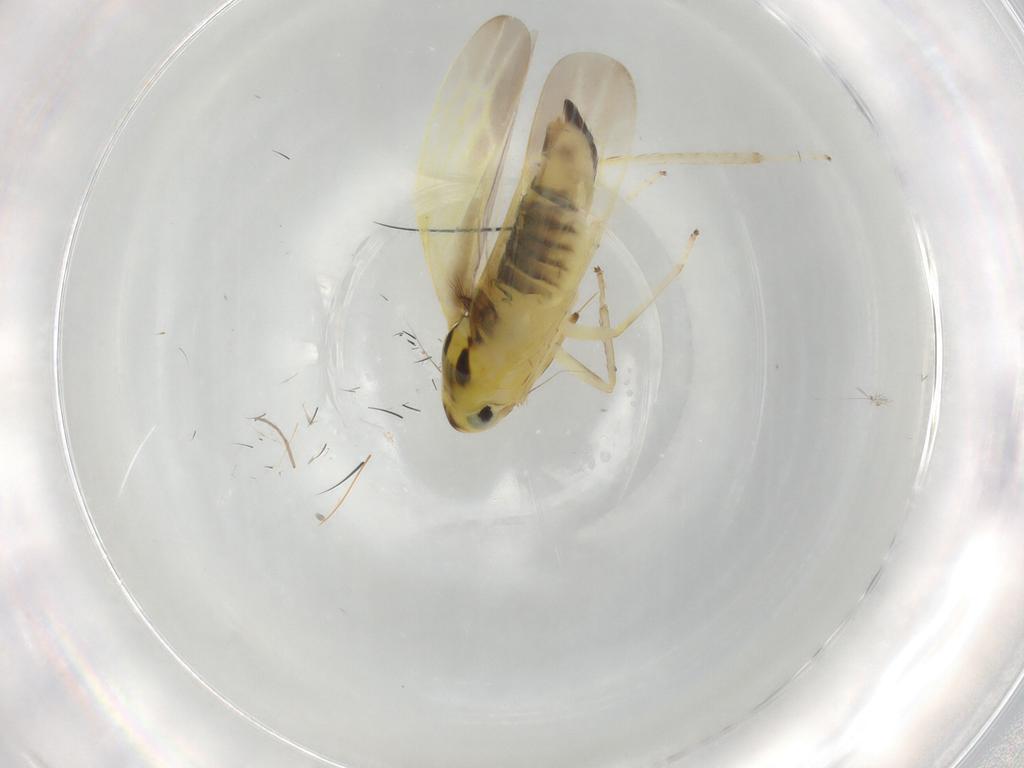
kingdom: Animalia
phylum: Arthropoda
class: Insecta
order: Hemiptera
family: Cicadellidae
